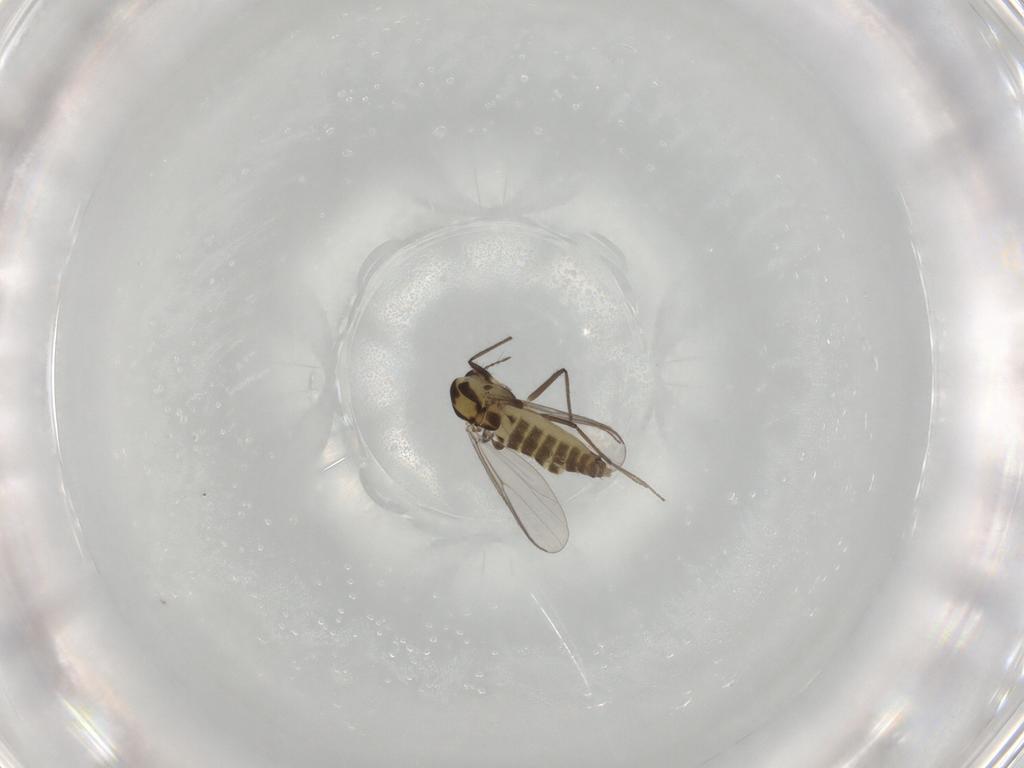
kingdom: Animalia
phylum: Arthropoda
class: Insecta
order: Diptera
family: Chironomidae
